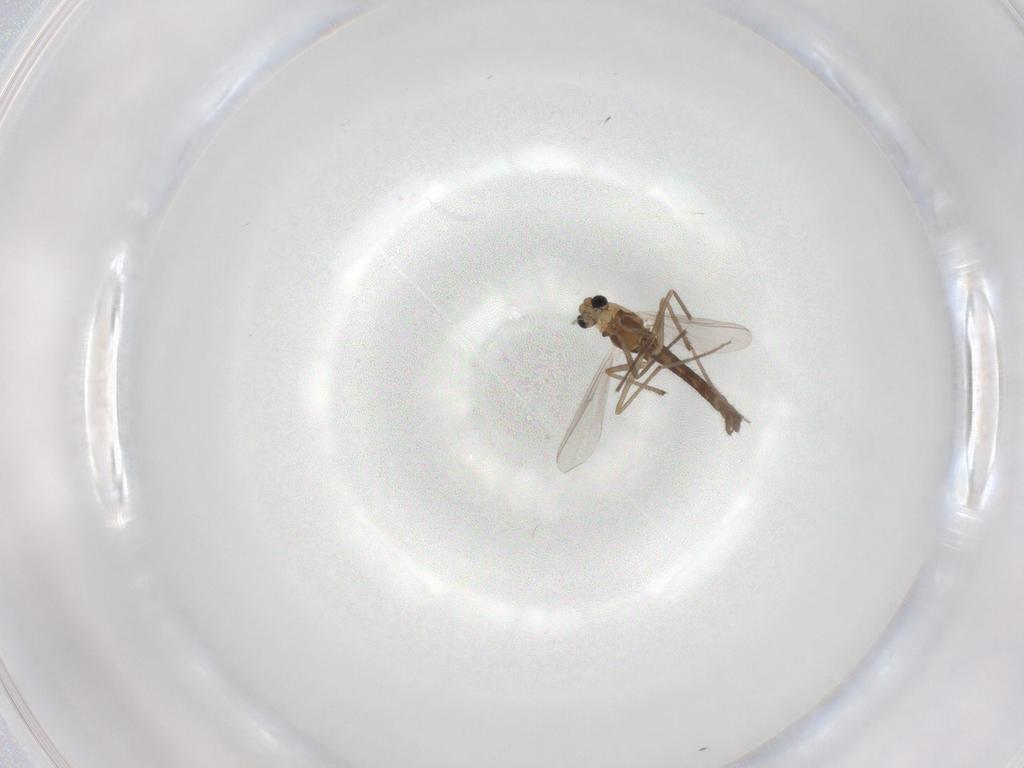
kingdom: Animalia
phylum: Arthropoda
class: Insecta
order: Diptera
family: Chironomidae
